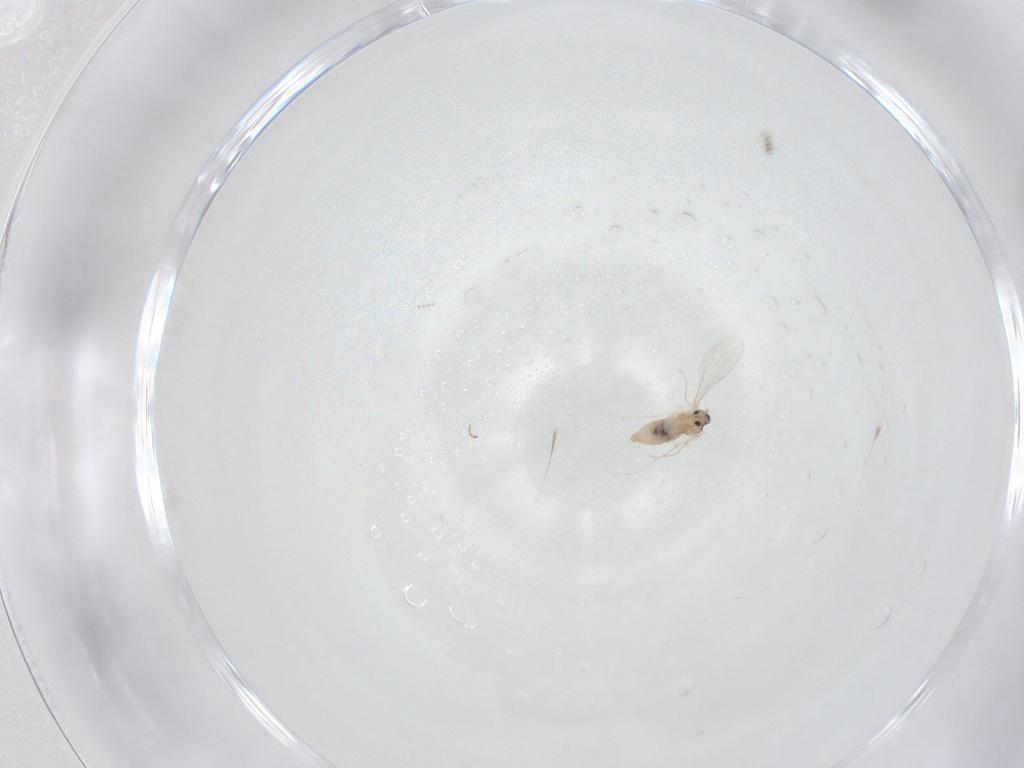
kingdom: Animalia
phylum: Arthropoda
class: Insecta
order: Diptera
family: Cecidomyiidae
